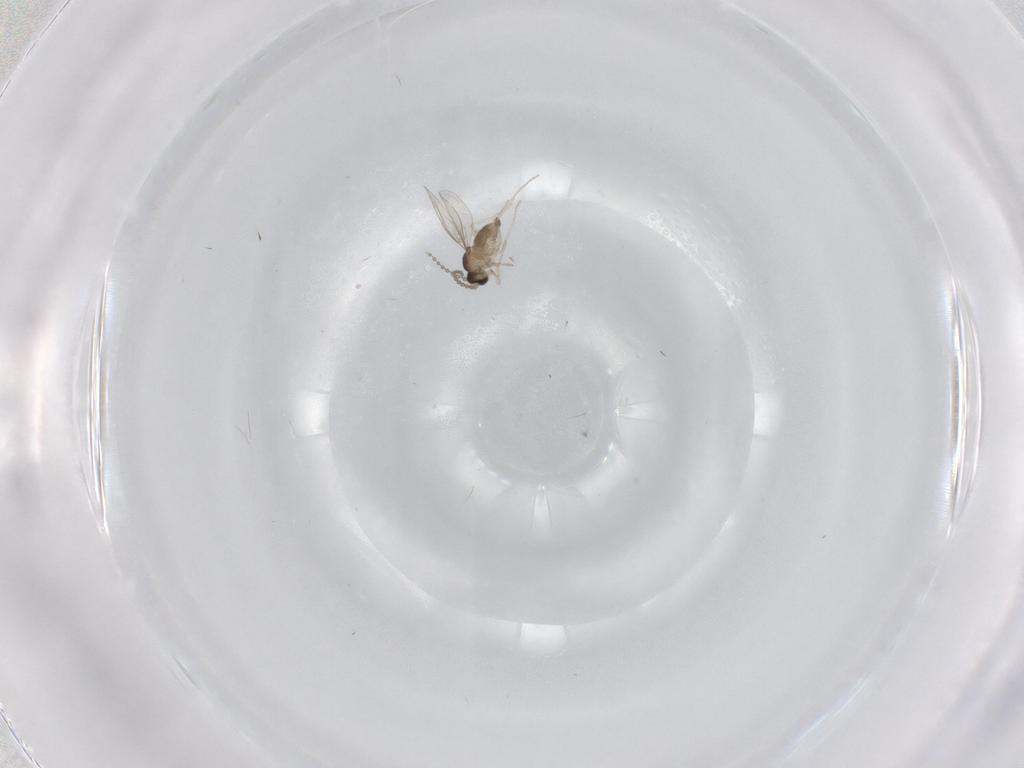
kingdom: Animalia
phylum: Arthropoda
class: Insecta
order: Diptera
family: Cecidomyiidae
